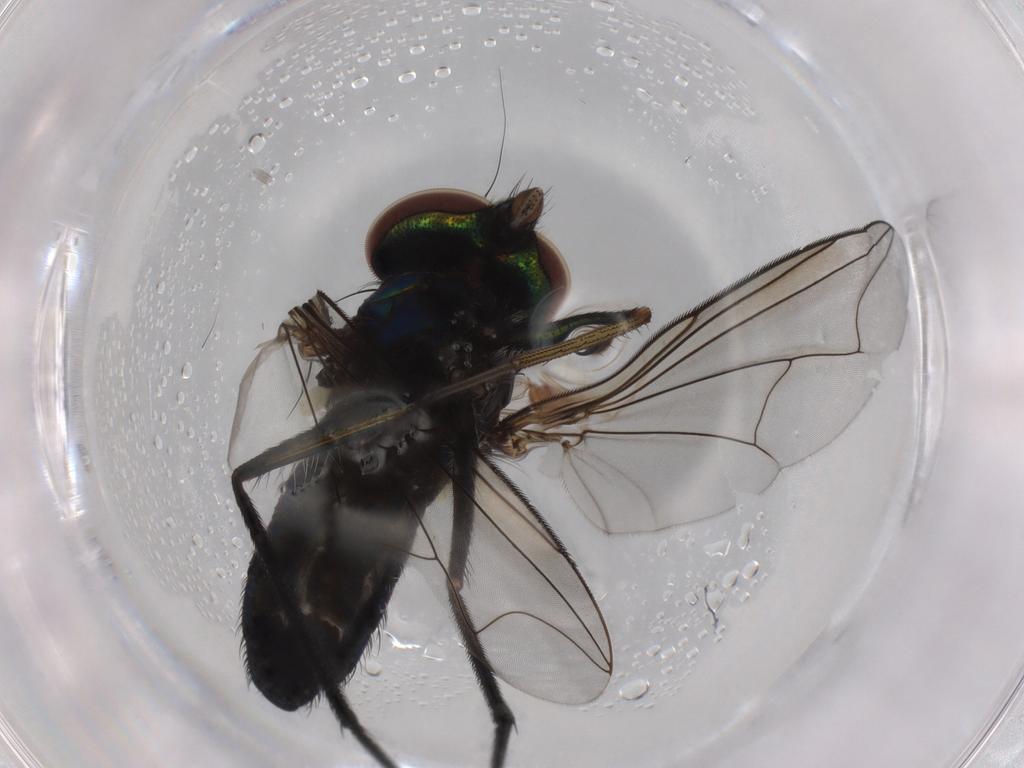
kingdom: Animalia
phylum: Arthropoda
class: Insecta
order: Diptera
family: Dolichopodidae
